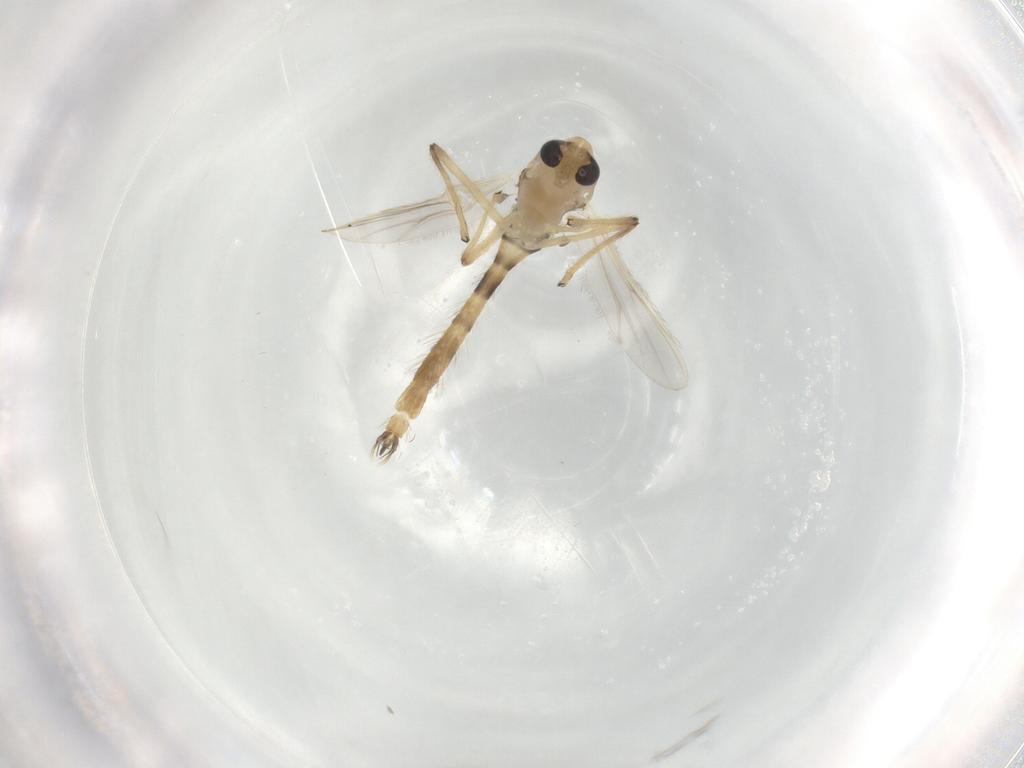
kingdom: Animalia
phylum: Arthropoda
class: Insecta
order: Diptera
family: Chironomidae
